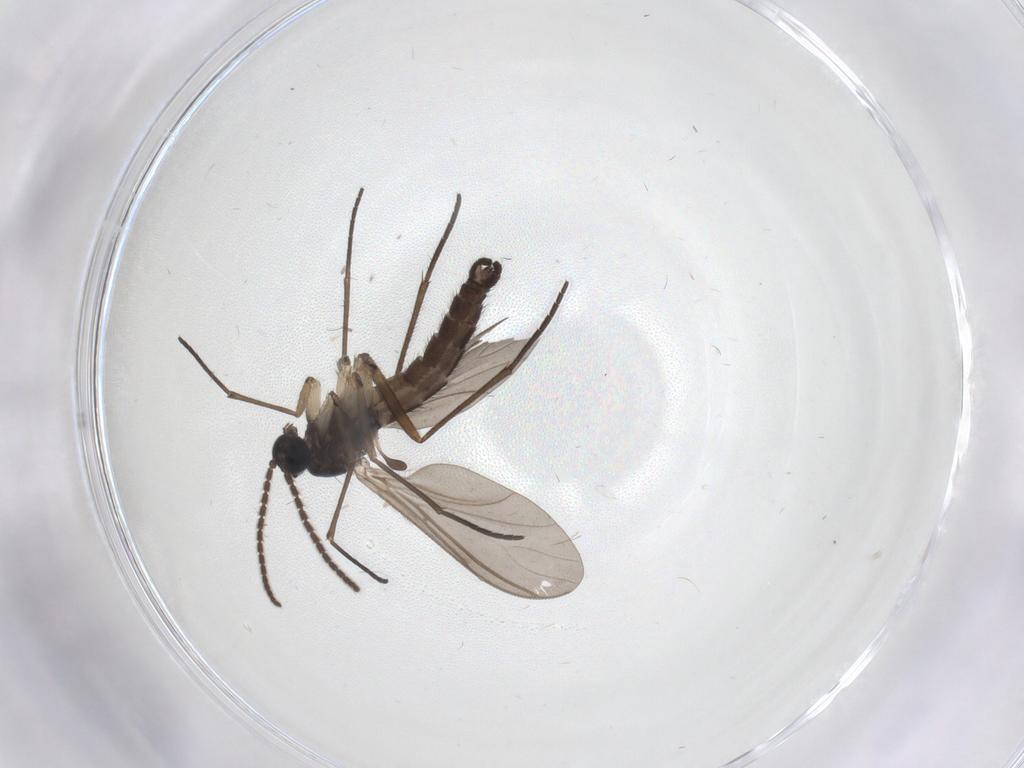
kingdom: Animalia
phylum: Arthropoda
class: Insecta
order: Diptera
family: Sciaridae
